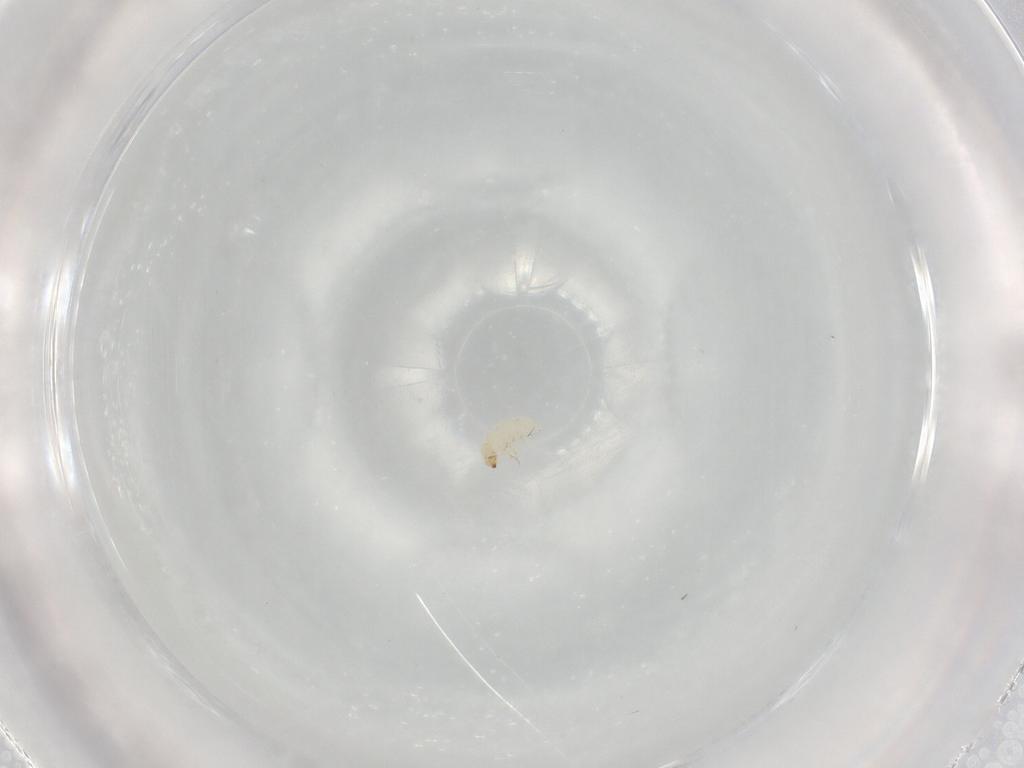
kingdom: Animalia
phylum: Arthropoda
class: Insecta
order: Coleoptera
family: Chrysomelidae
